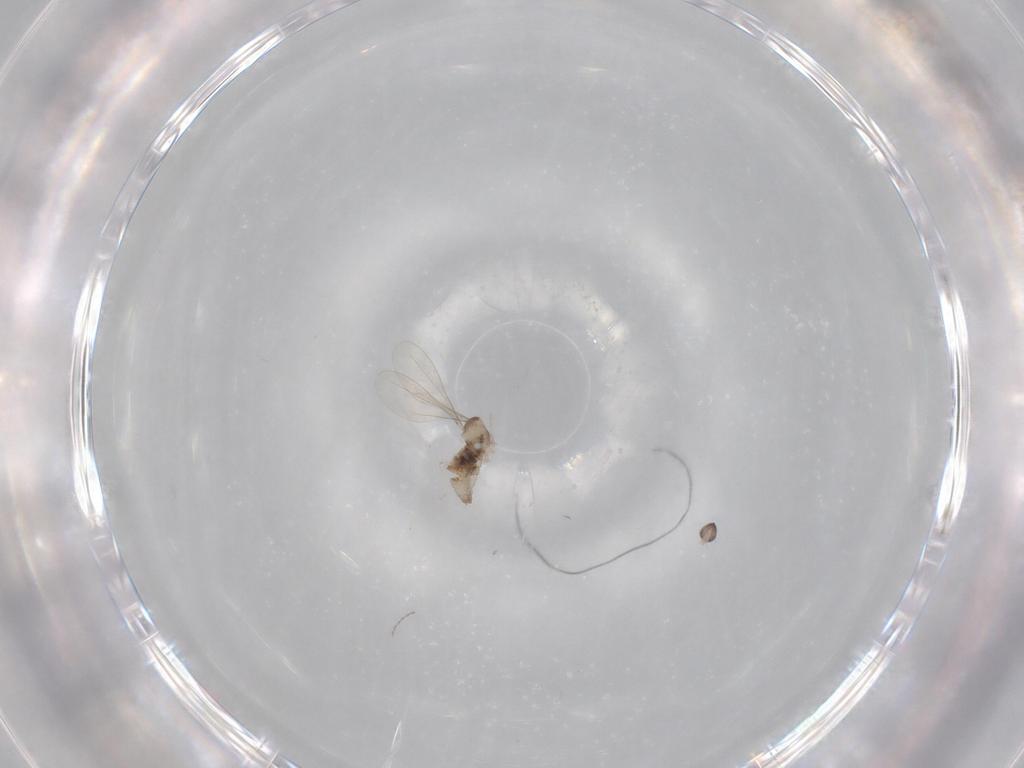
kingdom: Animalia
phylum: Arthropoda
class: Insecta
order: Diptera
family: Cecidomyiidae
